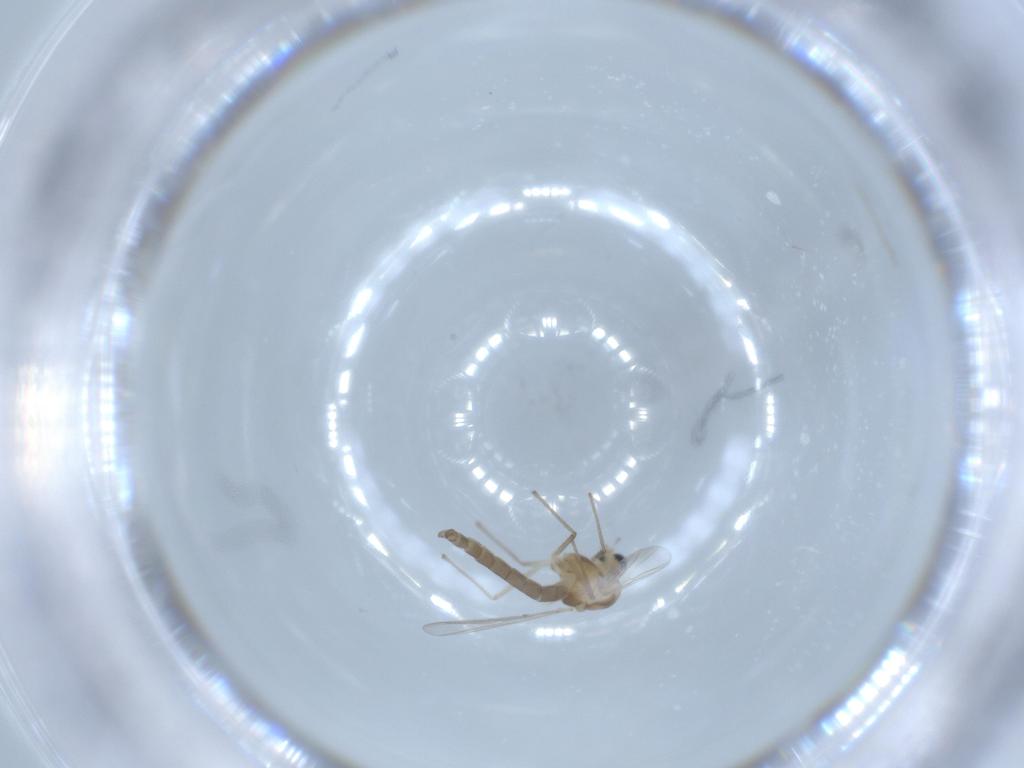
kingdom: Animalia
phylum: Arthropoda
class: Insecta
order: Diptera
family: Chironomidae
